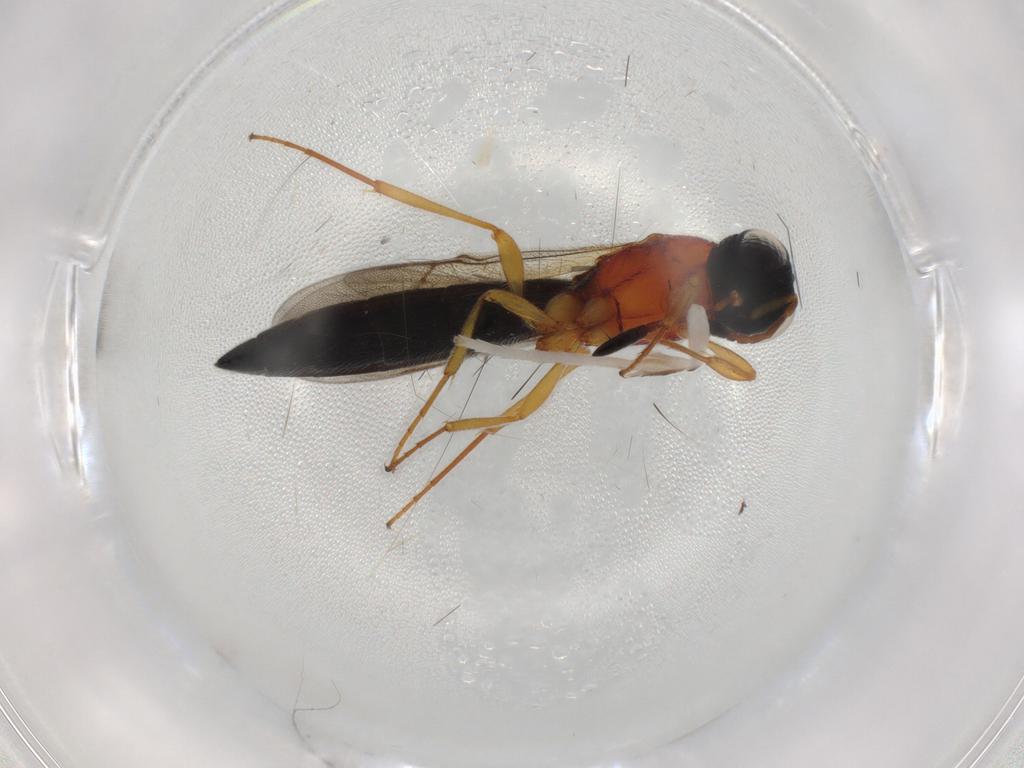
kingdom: Animalia
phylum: Arthropoda
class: Insecta
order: Hymenoptera
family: Scelionidae
